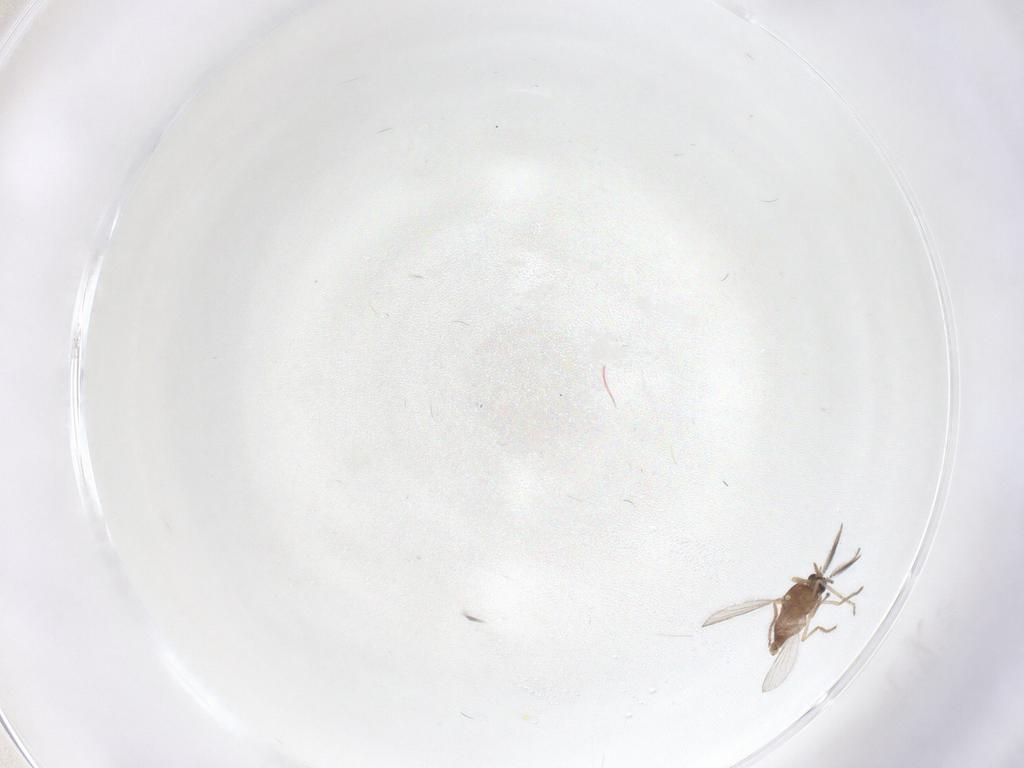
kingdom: Animalia
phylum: Arthropoda
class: Insecta
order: Diptera
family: Ceratopogonidae
